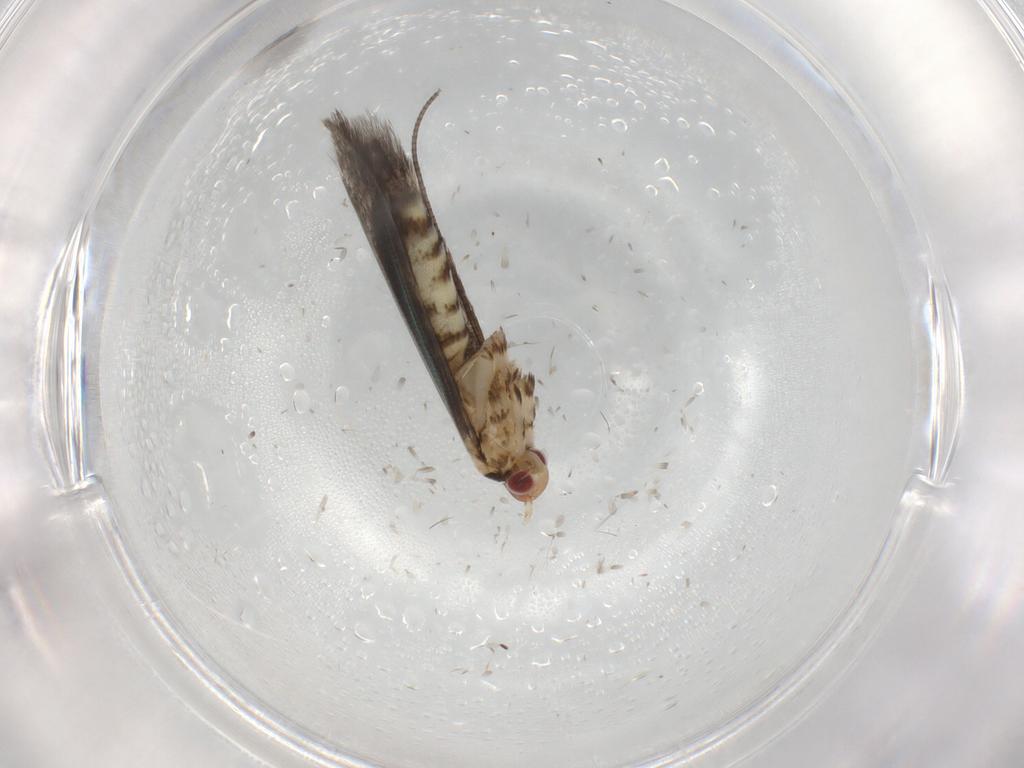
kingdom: Animalia
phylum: Arthropoda
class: Insecta
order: Lepidoptera
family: Gracillariidae
